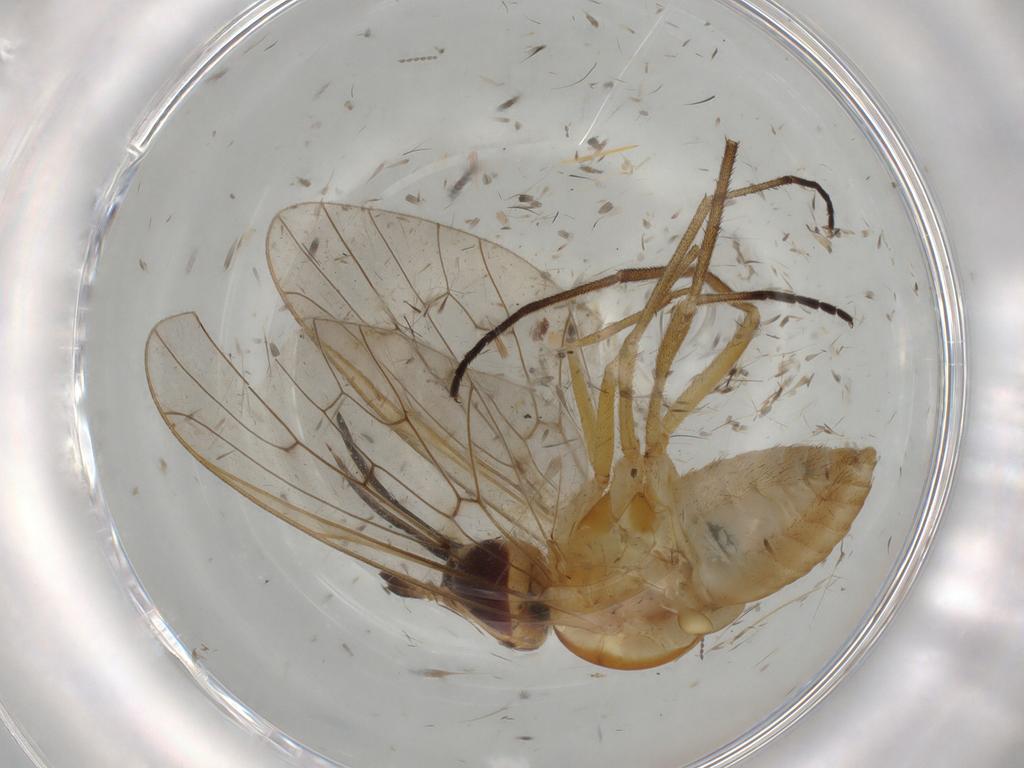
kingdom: Animalia
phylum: Arthropoda
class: Insecta
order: Diptera
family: Bombyliidae
